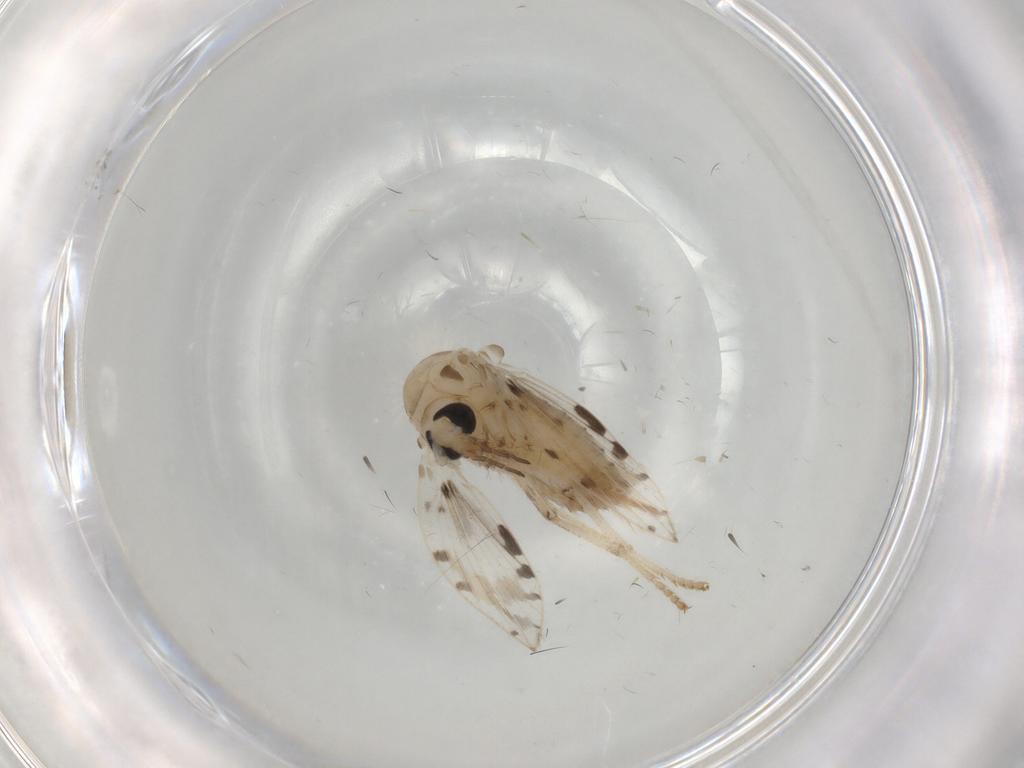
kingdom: Animalia
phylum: Arthropoda
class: Insecta
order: Diptera
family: Psychodidae
